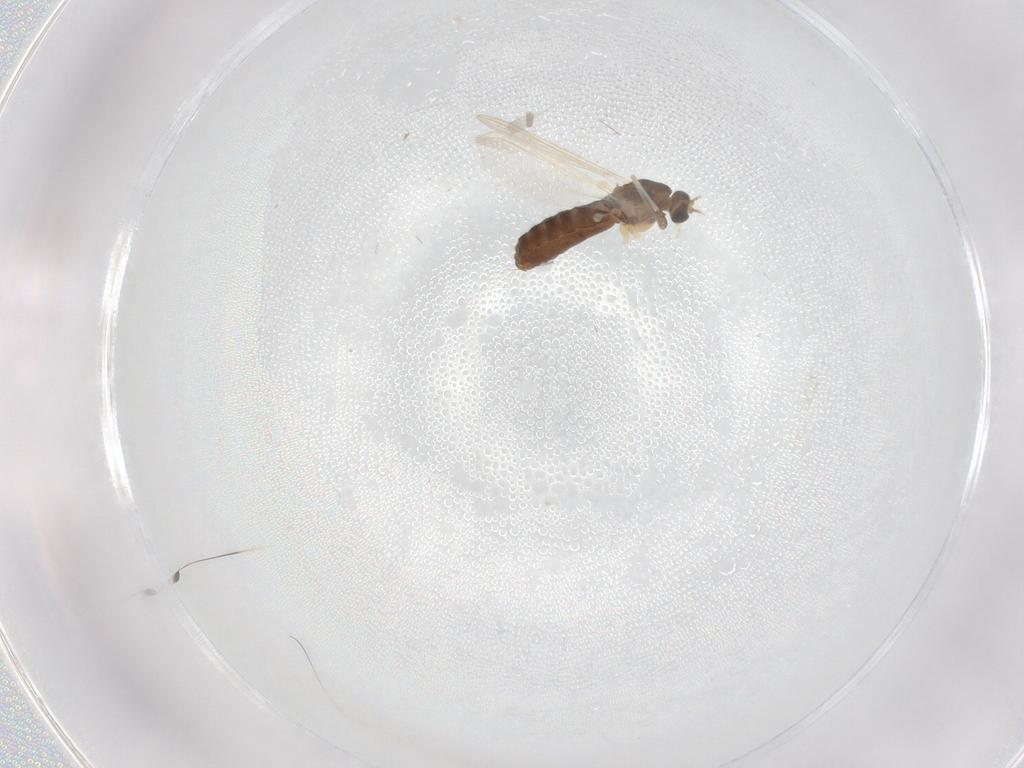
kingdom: Animalia
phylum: Arthropoda
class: Insecta
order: Diptera
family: Chironomidae
